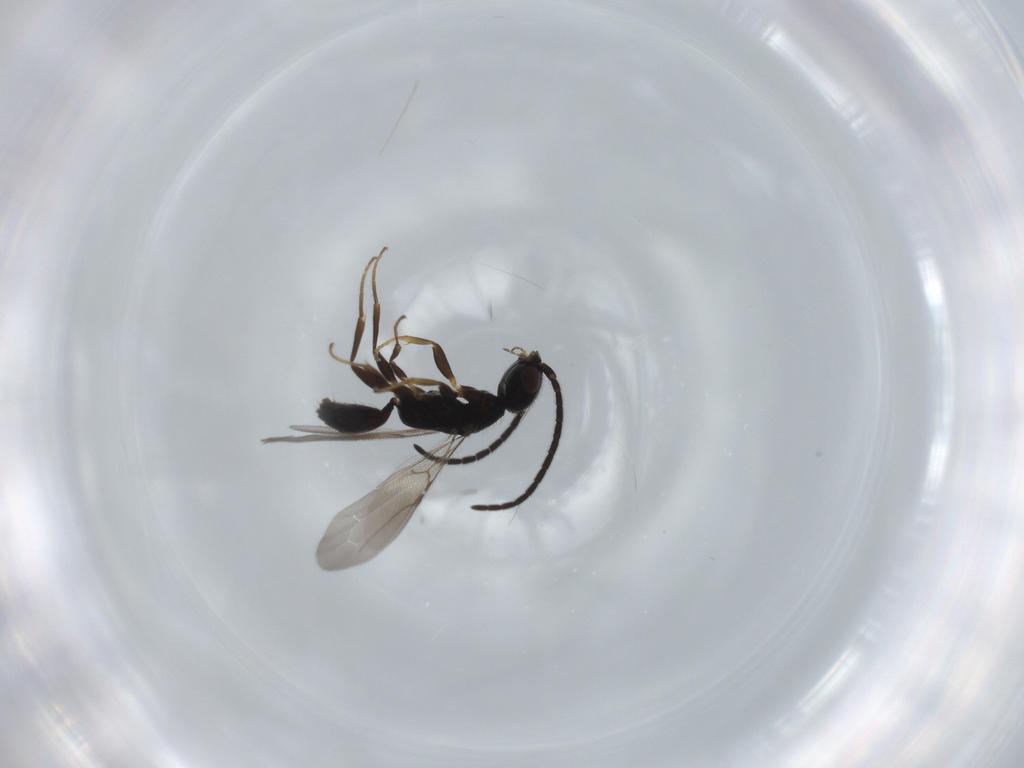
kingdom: Animalia
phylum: Arthropoda
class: Insecta
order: Hymenoptera
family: Bethylidae
